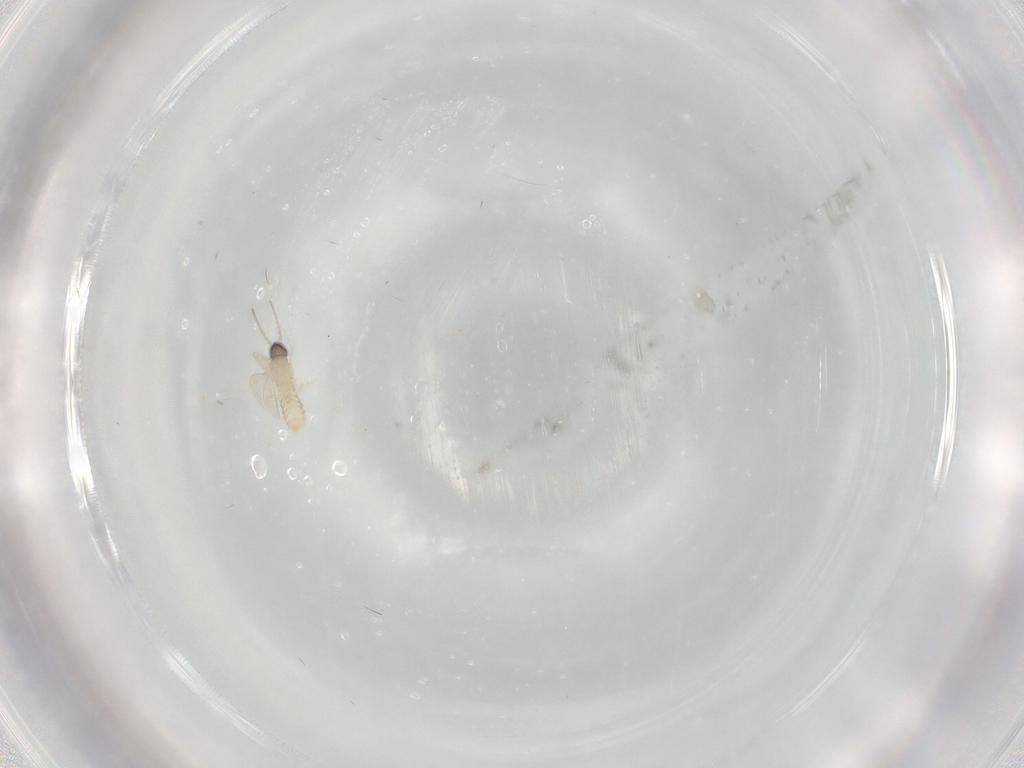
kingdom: Animalia
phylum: Arthropoda
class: Insecta
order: Diptera
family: Cecidomyiidae
